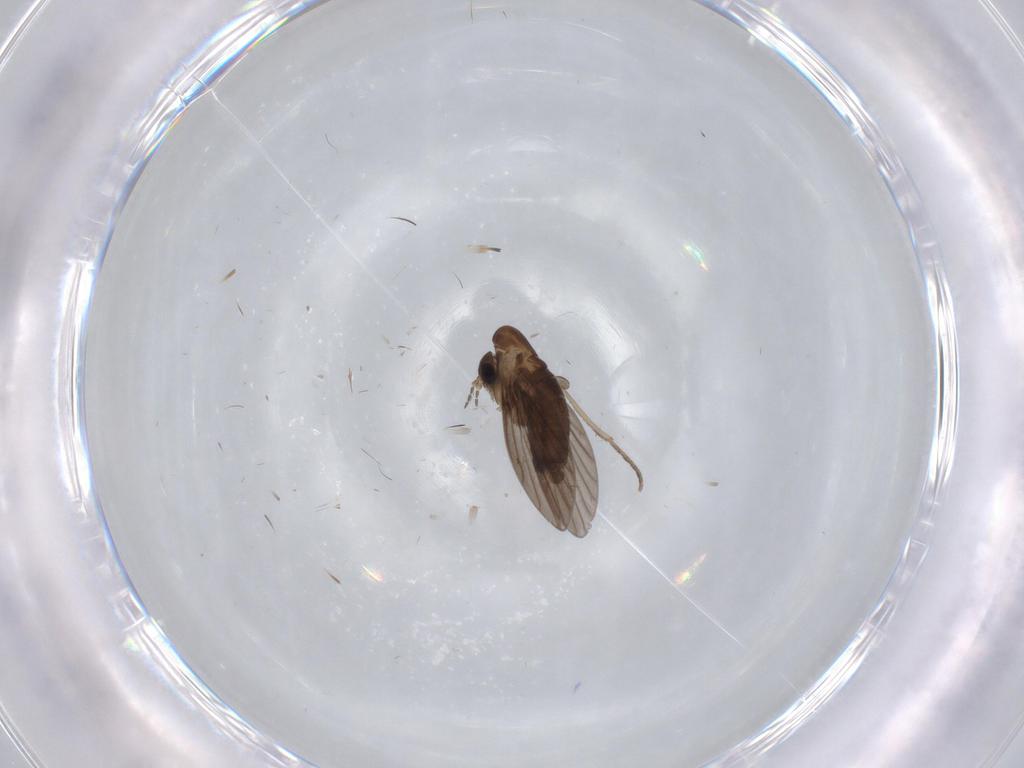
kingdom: Animalia
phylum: Arthropoda
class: Insecta
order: Diptera
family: Psychodidae
